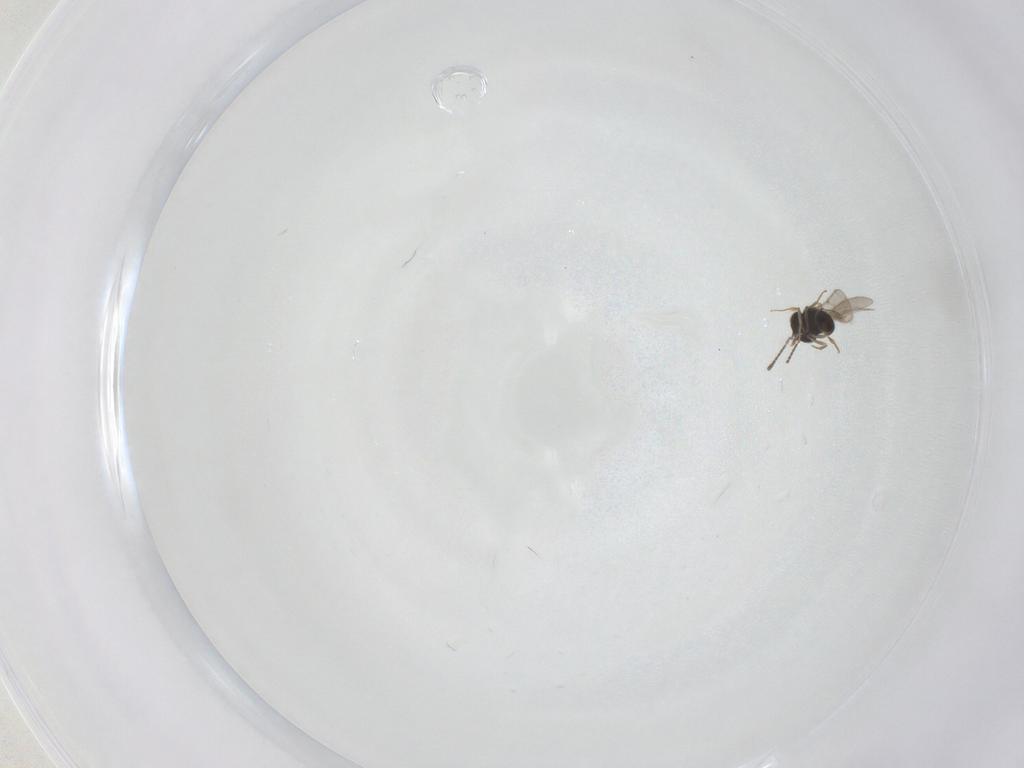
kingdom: Animalia
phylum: Arthropoda
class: Insecta
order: Hymenoptera
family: Scelionidae
